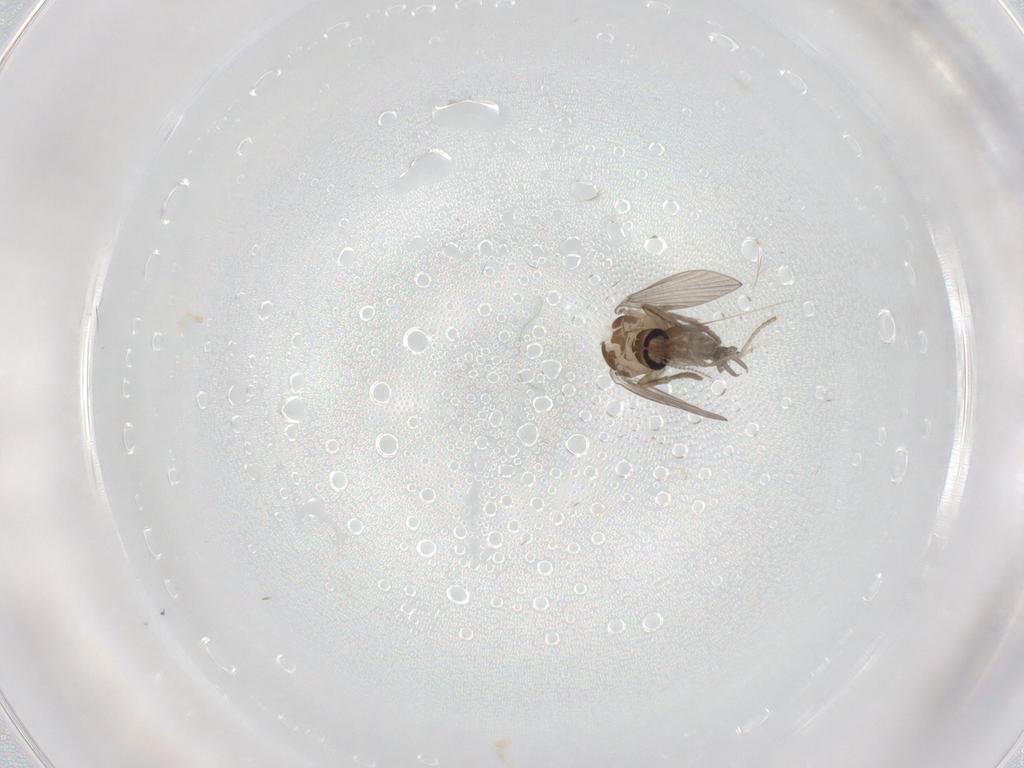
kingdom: Animalia
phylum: Arthropoda
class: Insecta
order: Diptera
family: Psychodidae
